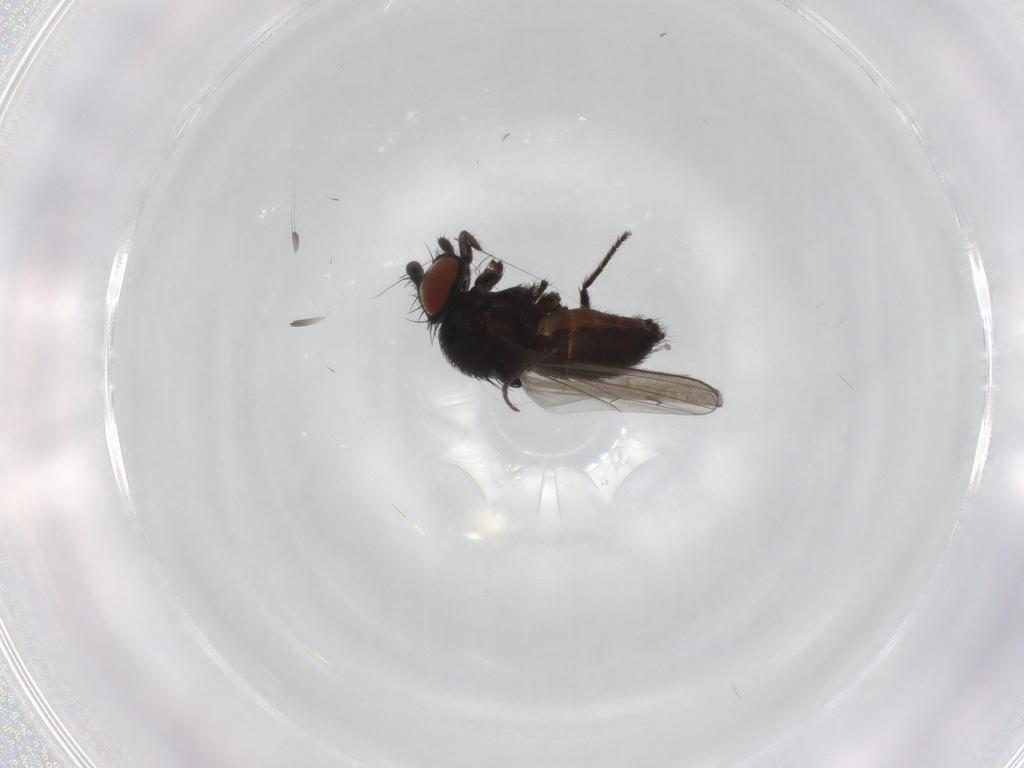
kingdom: Animalia
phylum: Arthropoda
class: Insecta
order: Diptera
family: Milichiidae
